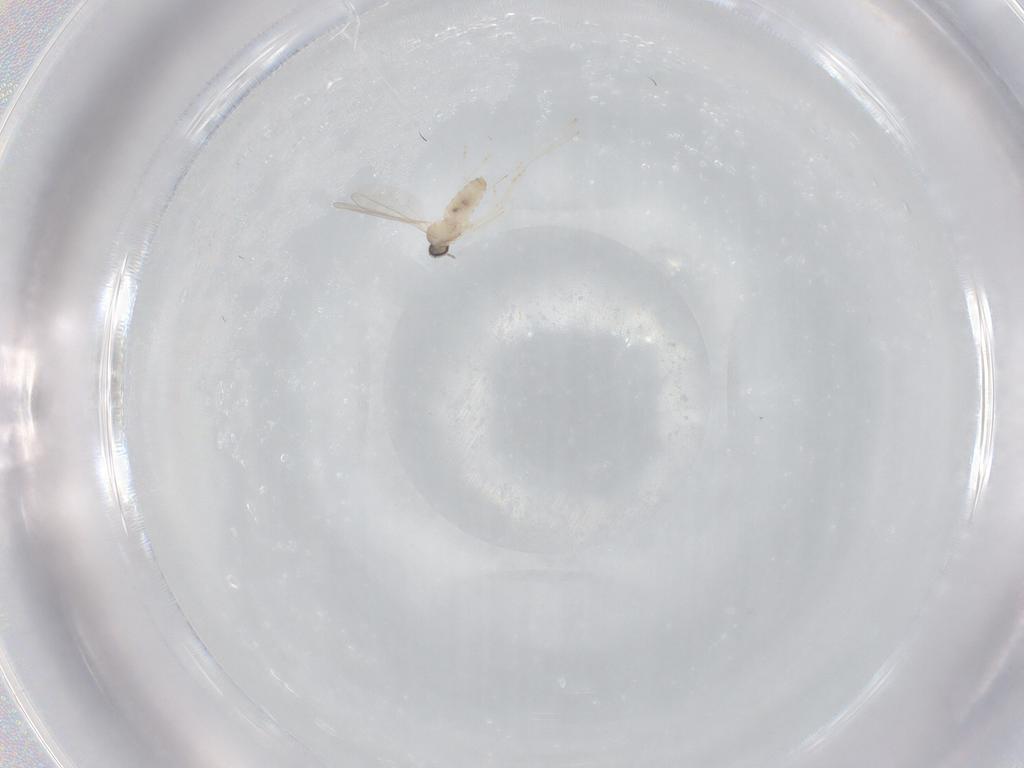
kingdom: Animalia
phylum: Arthropoda
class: Insecta
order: Diptera
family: Cecidomyiidae
